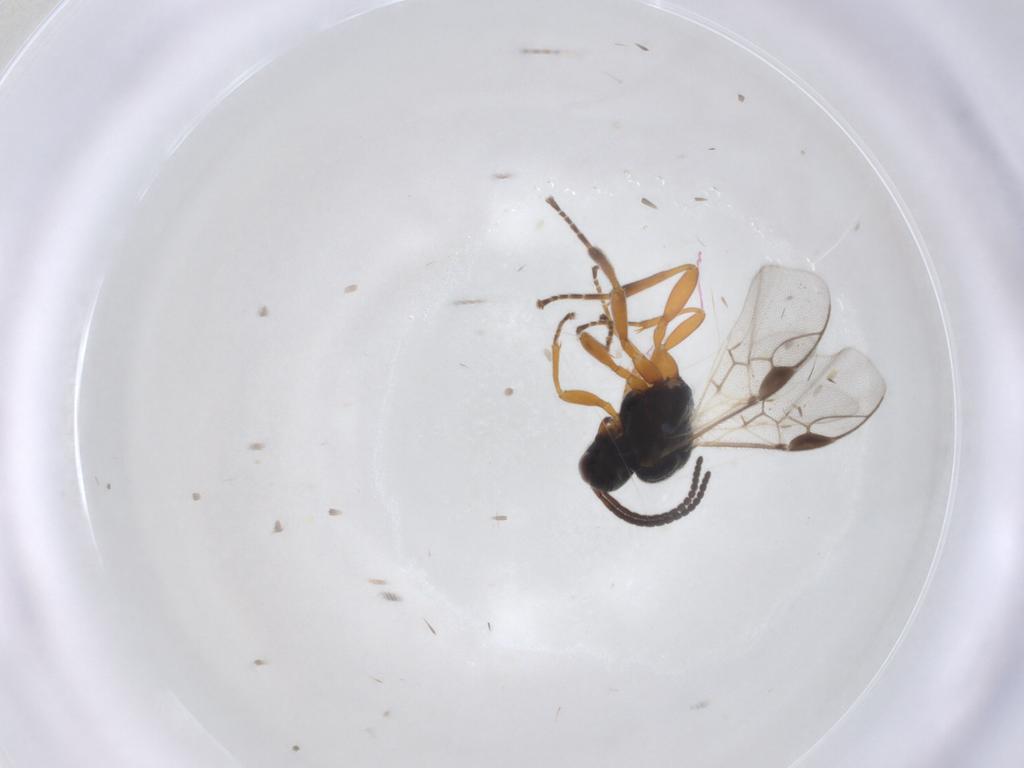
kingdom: Animalia
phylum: Arthropoda
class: Insecta
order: Hymenoptera
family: Braconidae
